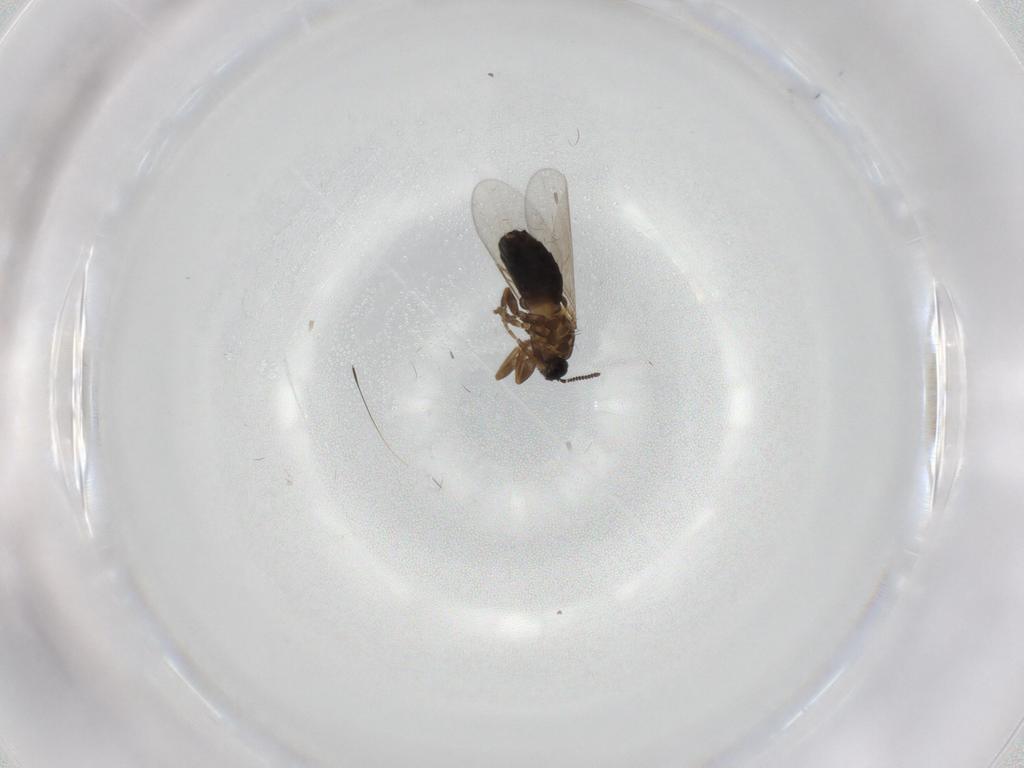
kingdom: Animalia
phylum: Arthropoda
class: Insecta
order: Diptera
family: Scatopsidae
